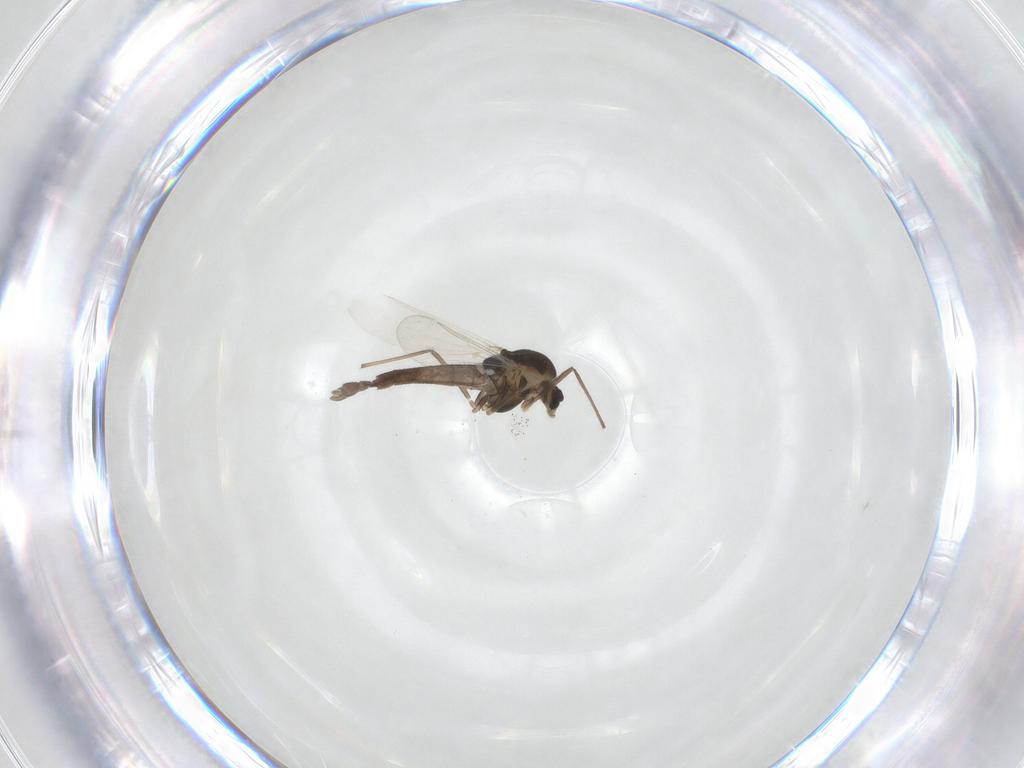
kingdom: Animalia
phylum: Arthropoda
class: Insecta
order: Diptera
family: Chironomidae
